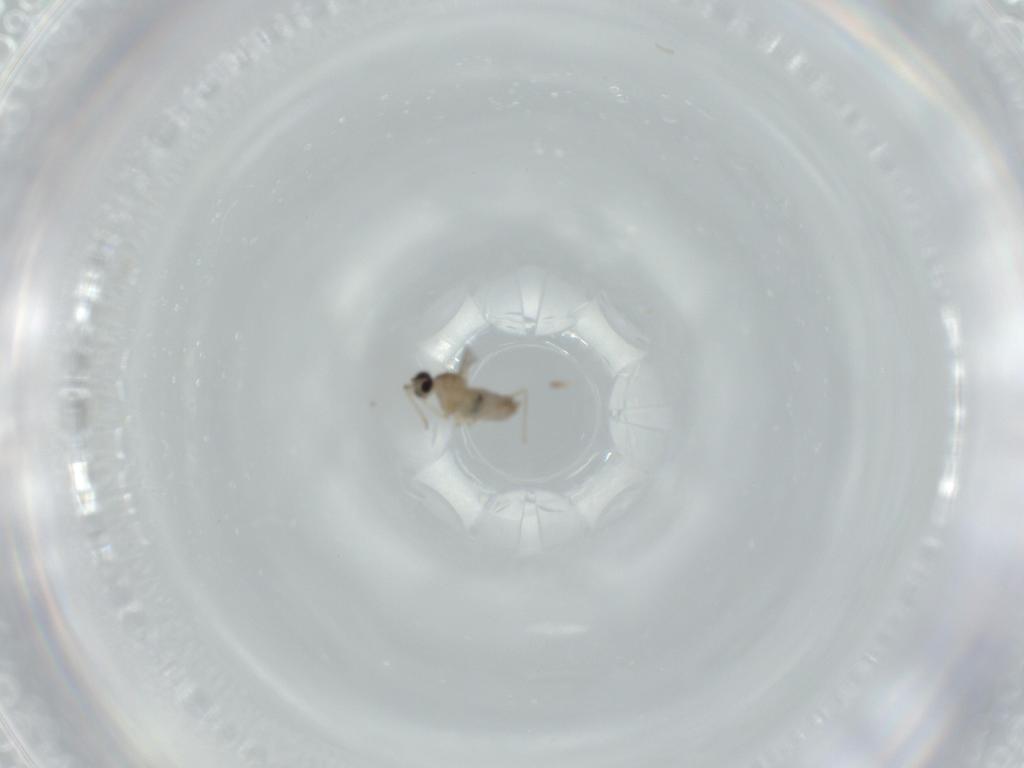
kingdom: Animalia
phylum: Arthropoda
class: Insecta
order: Diptera
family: Cecidomyiidae
